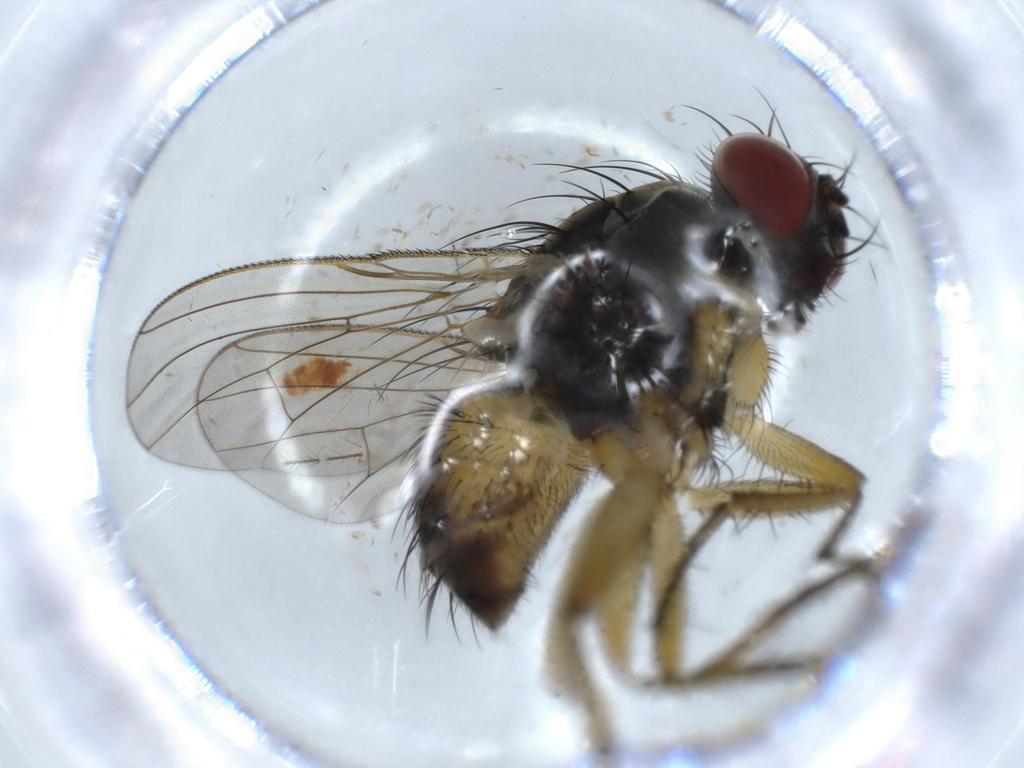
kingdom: Animalia
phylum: Arthropoda
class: Insecta
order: Diptera
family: Muscidae
